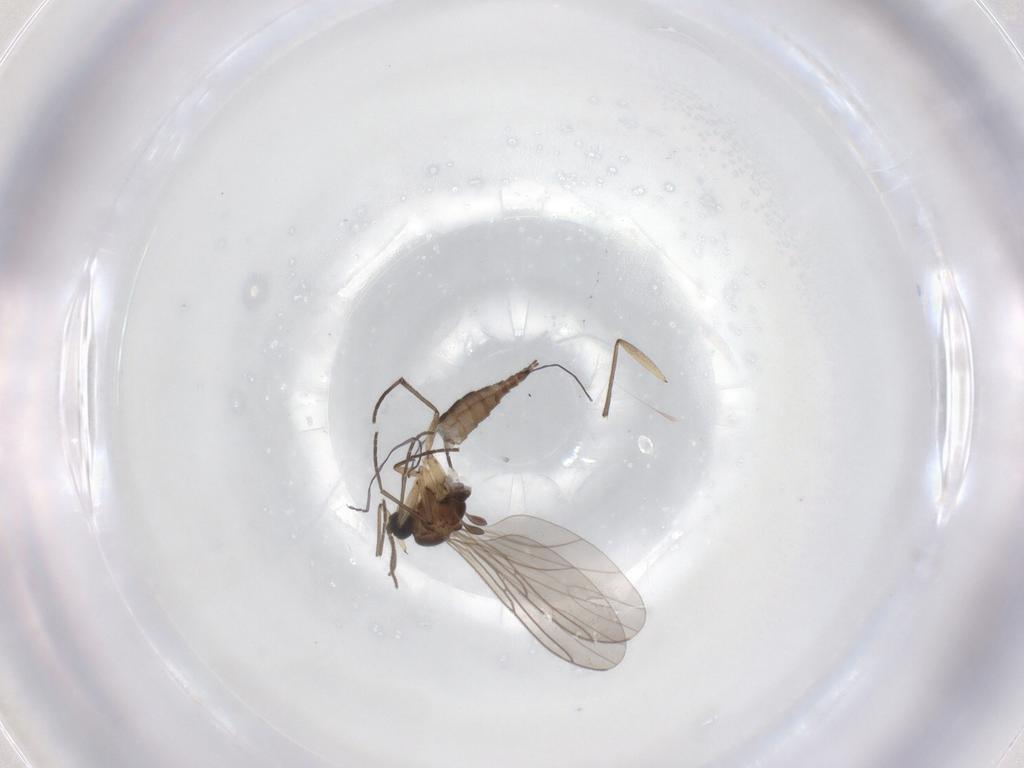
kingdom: Animalia
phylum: Arthropoda
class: Insecta
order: Diptera
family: Sciaridae
